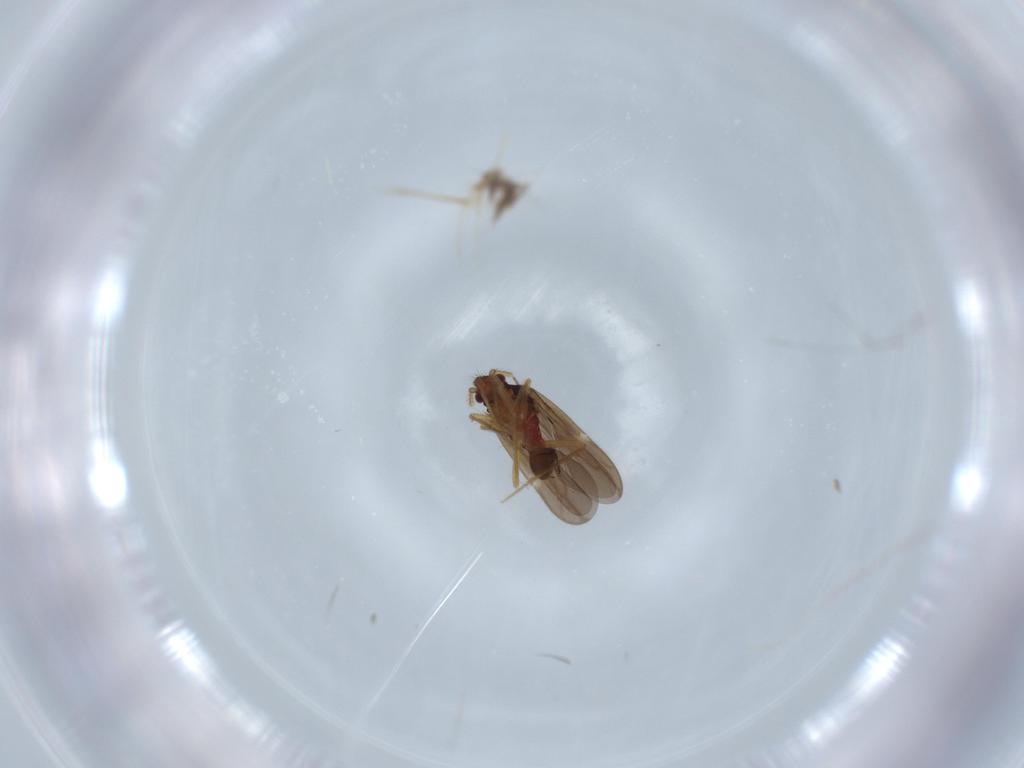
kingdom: Animalia
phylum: Arthropoda
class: Insecta
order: Hemiptera
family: Ceratocombidae
